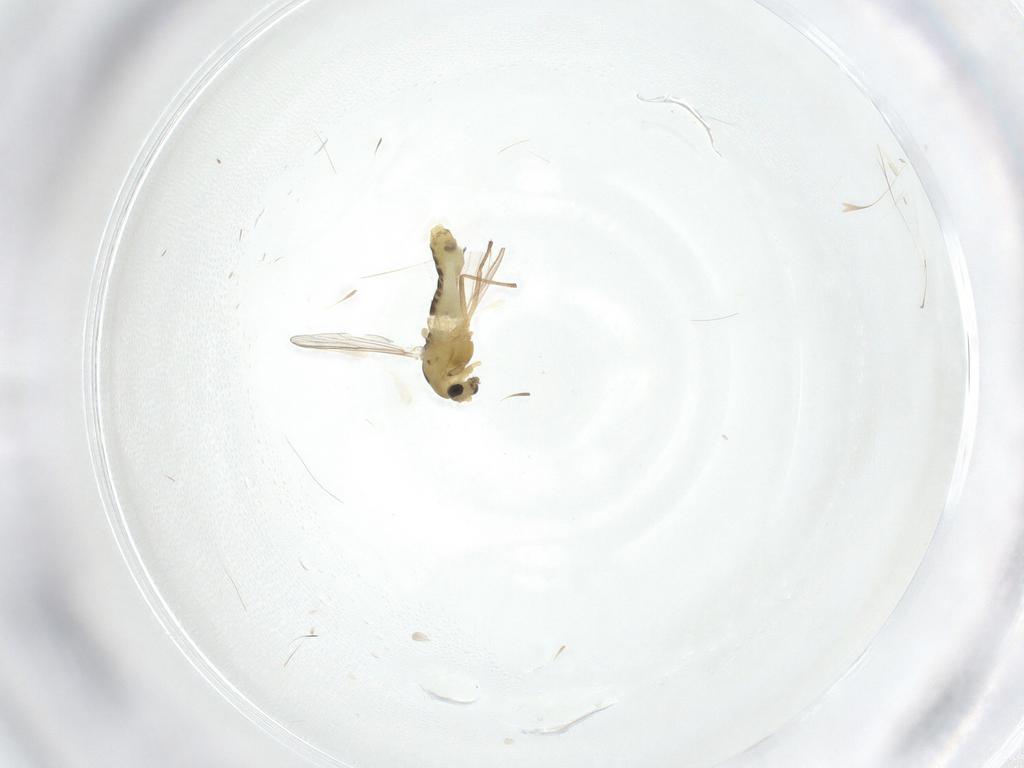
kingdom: Animalia
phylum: Arthropoda
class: Insecta
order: Diptera
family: Chironomidae
